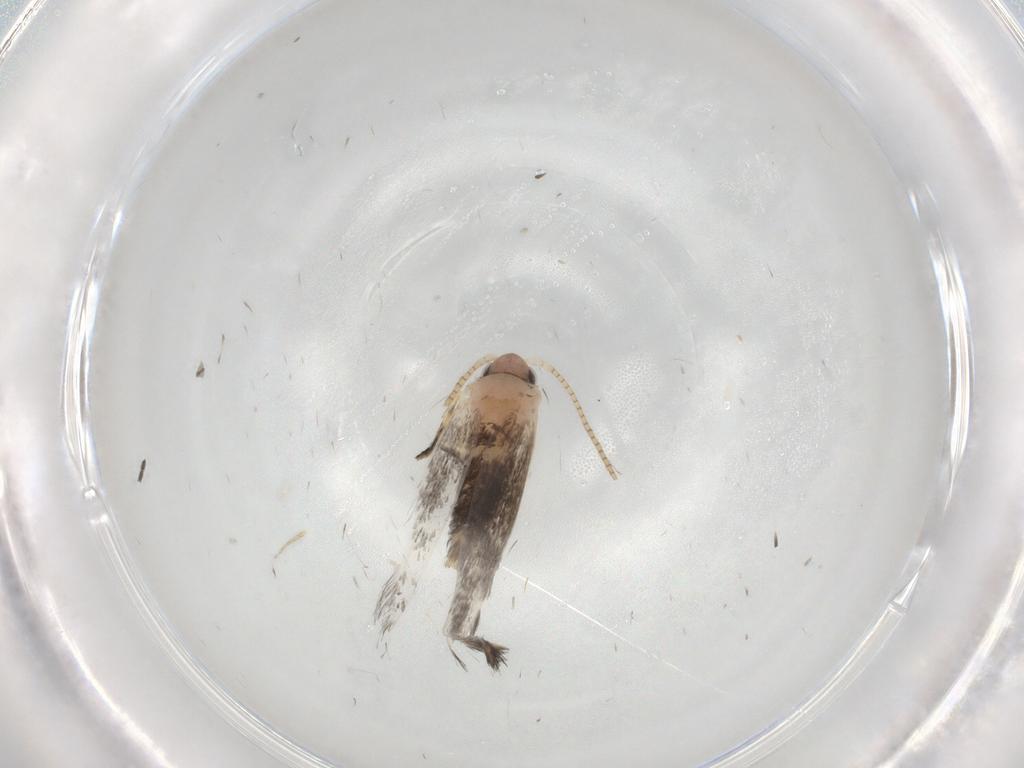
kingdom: Animalia
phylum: Arthropoda
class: Insecta
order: Lepidoptera
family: Tineidae
